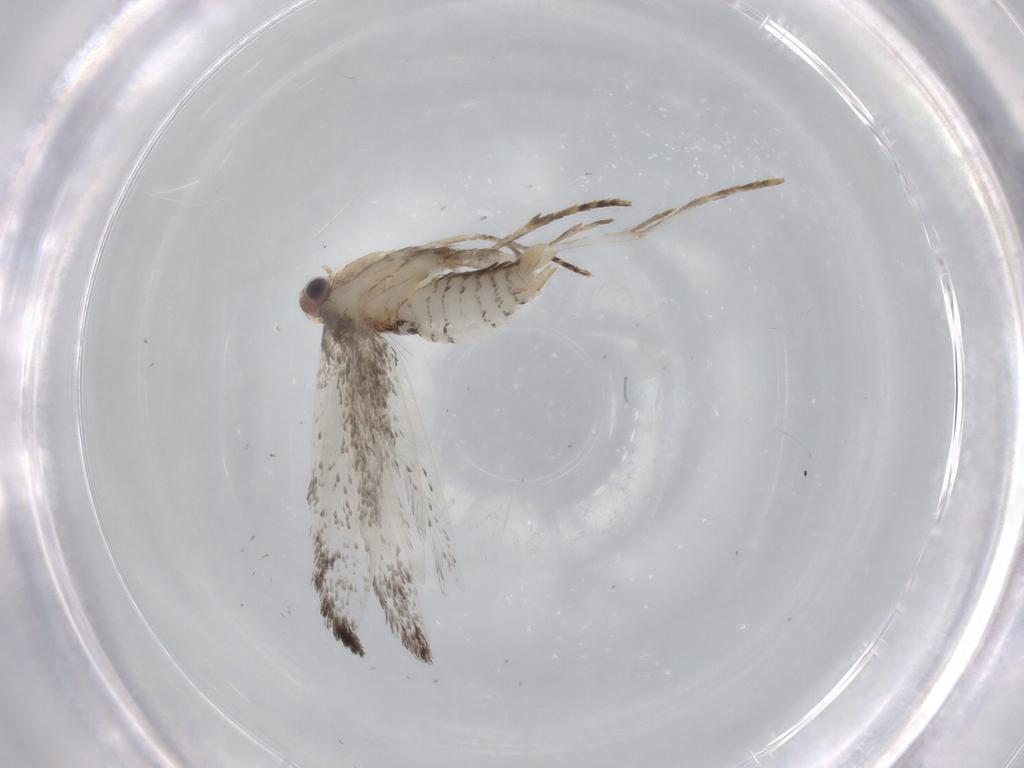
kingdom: Animalia
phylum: Arthropoda
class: Insecta
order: Lepidoptera
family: Tineidae
